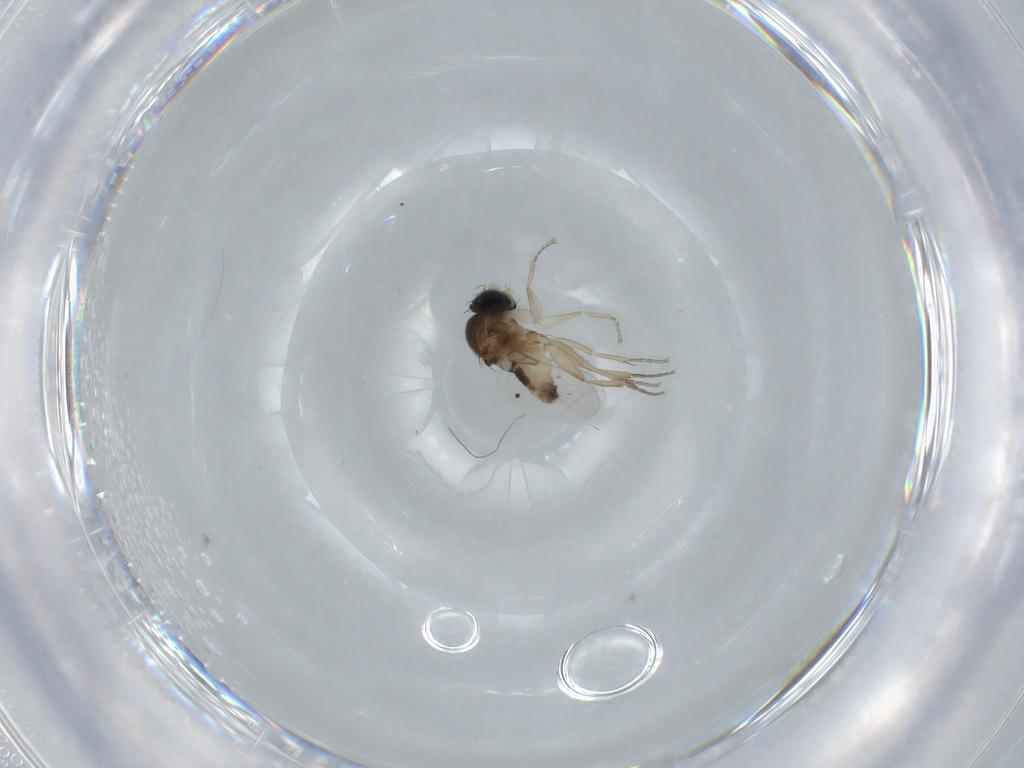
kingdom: Animalia
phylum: Arthropoda
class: Insecta
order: Diptera
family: Phoridae
